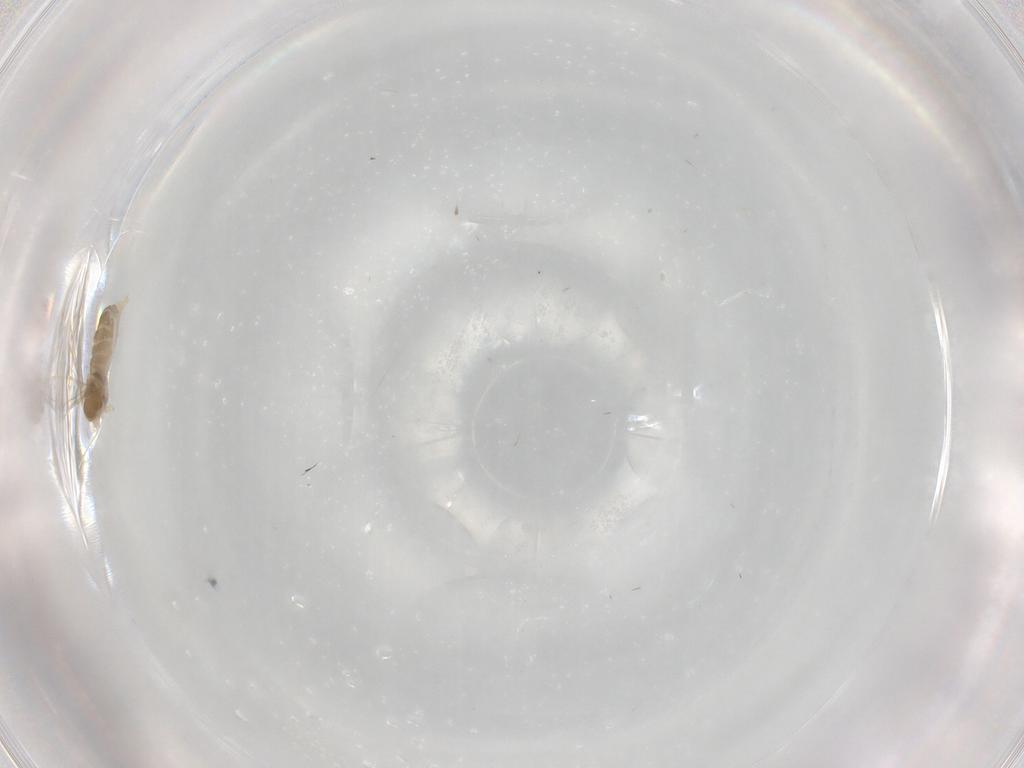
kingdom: Animalia
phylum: Arthropoda
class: Insecta
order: Diptera
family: Cecidomyiidae
